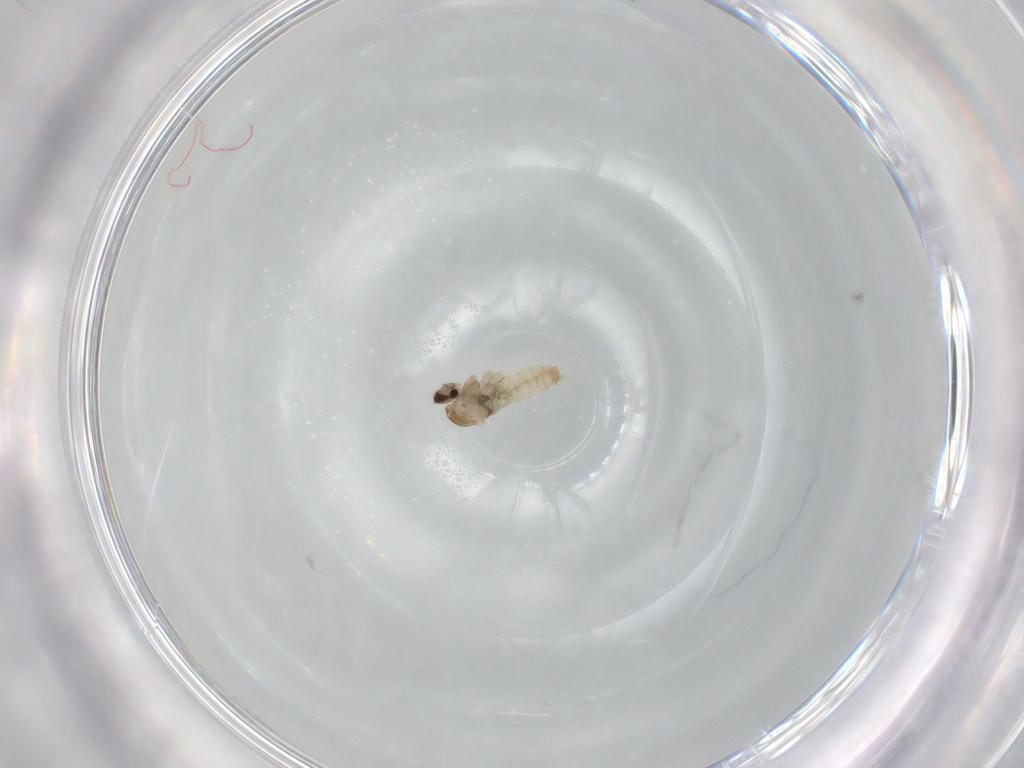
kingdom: Animalia
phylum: Arthropoda
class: Insecta
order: Diptera
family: Cecidomyiidae
